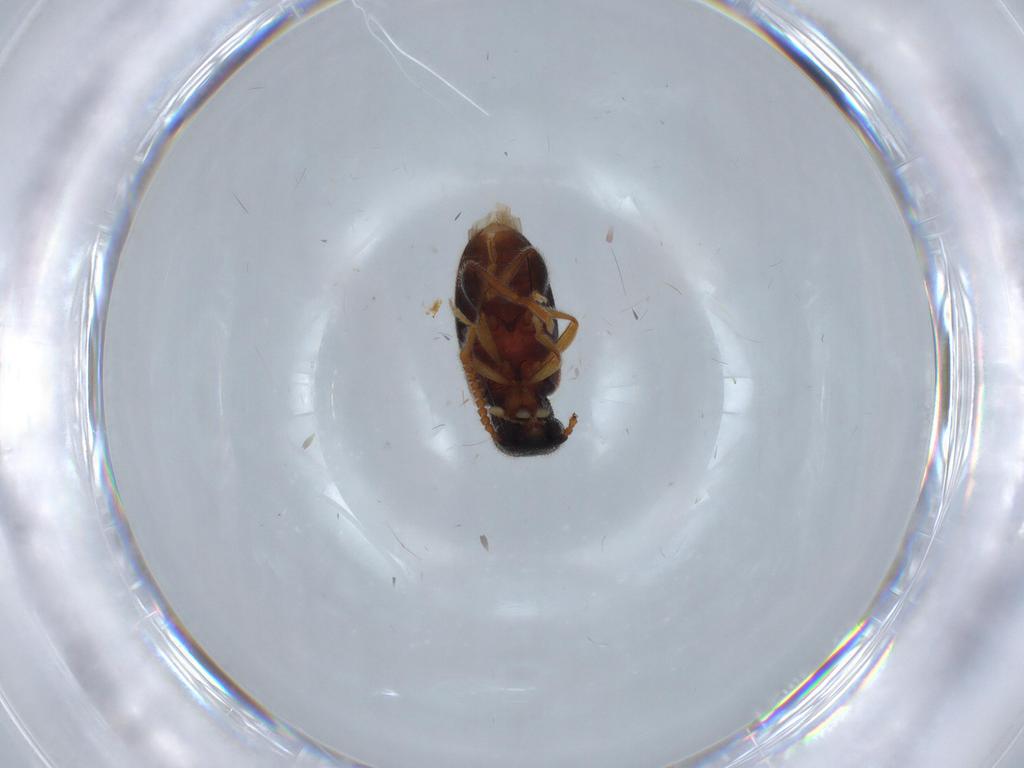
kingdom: Animalia
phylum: Arthropoda
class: Insecta
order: Coleoptera
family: Aderidae
